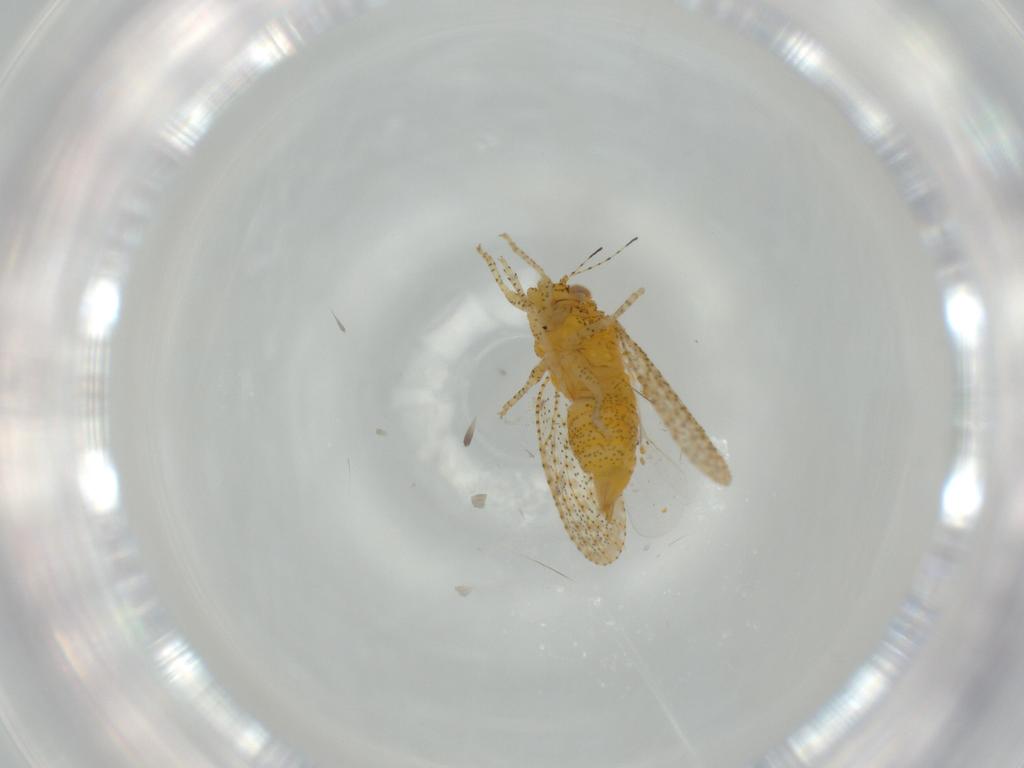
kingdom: Animalia
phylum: Arthropoda
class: Insecta
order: Hemiptera
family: Psyllidae
